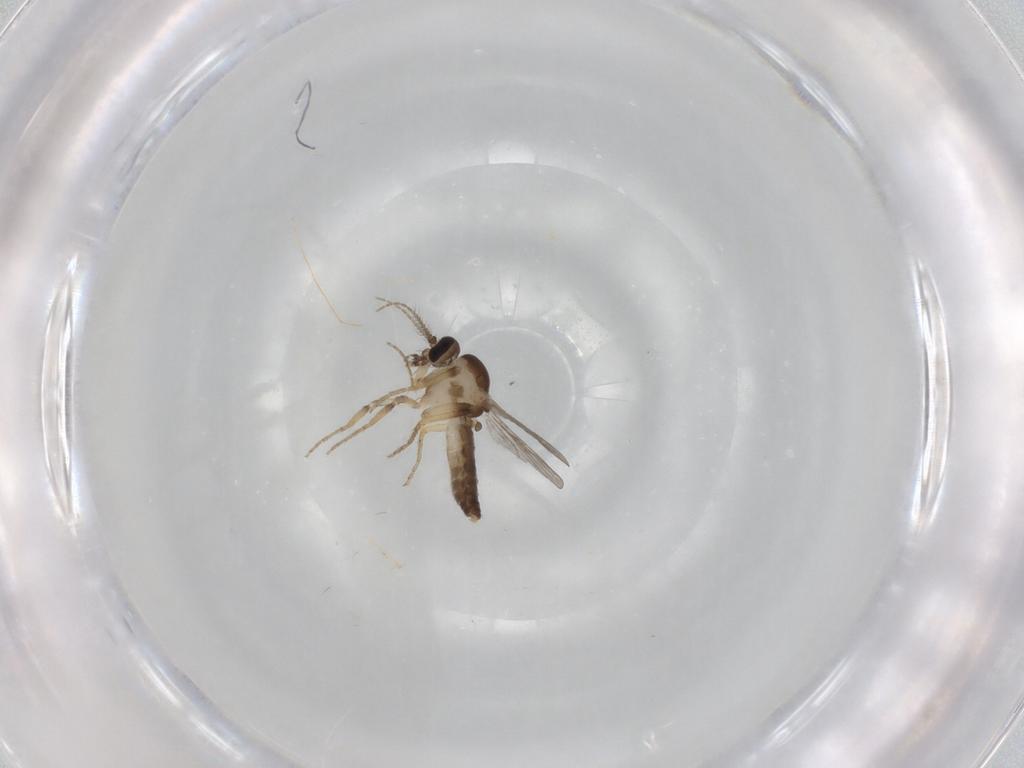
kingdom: Animalia
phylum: Arthropoda
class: Insecta
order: Diptera
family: Ceratopogonidae
